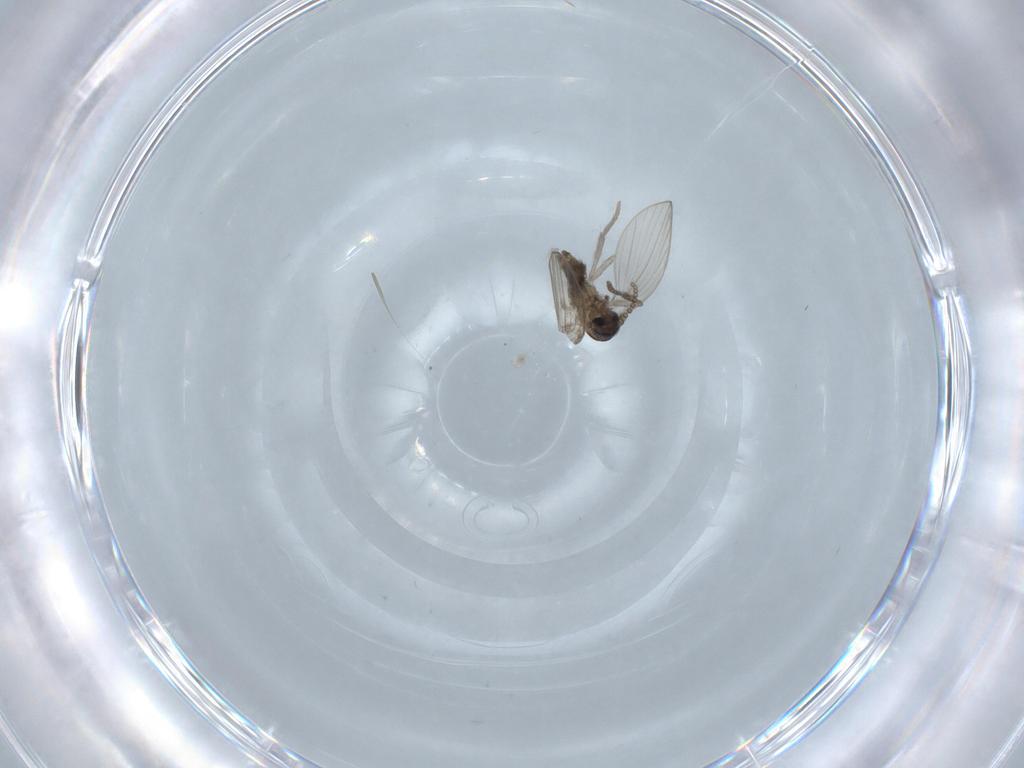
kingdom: Animalia
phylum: Arthropoda
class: Insecta
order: Diptera
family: Psychodidae
